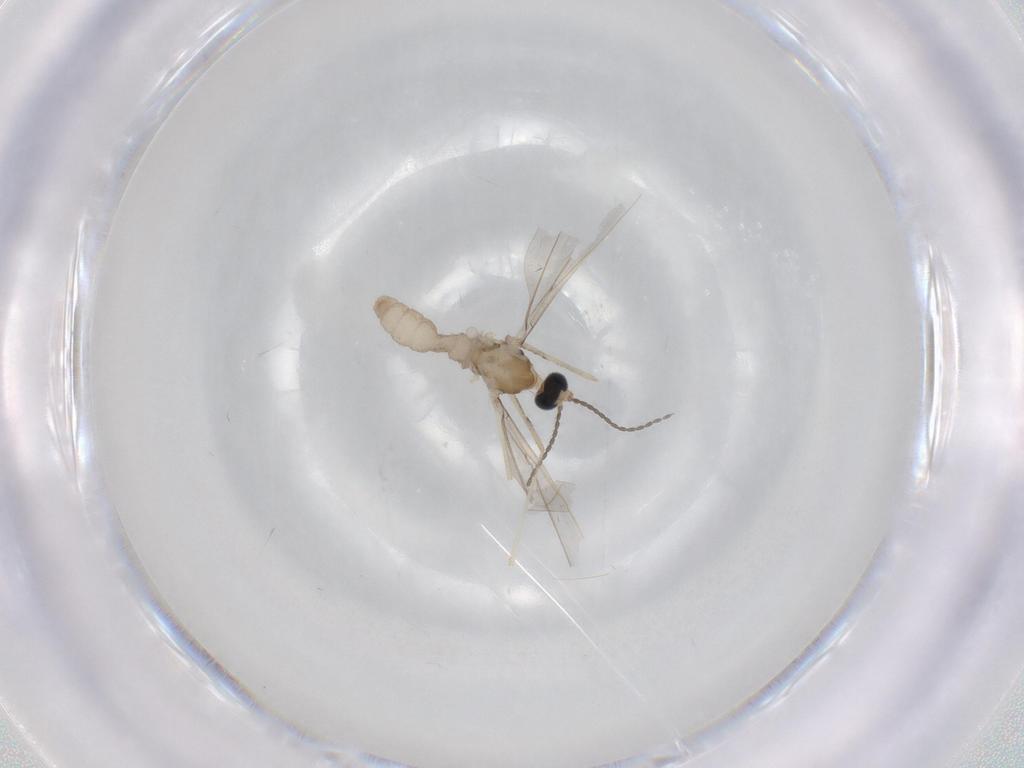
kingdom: Animalia
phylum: Arthropoda
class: Insecta
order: Diptera
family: Cecidomyiidae
